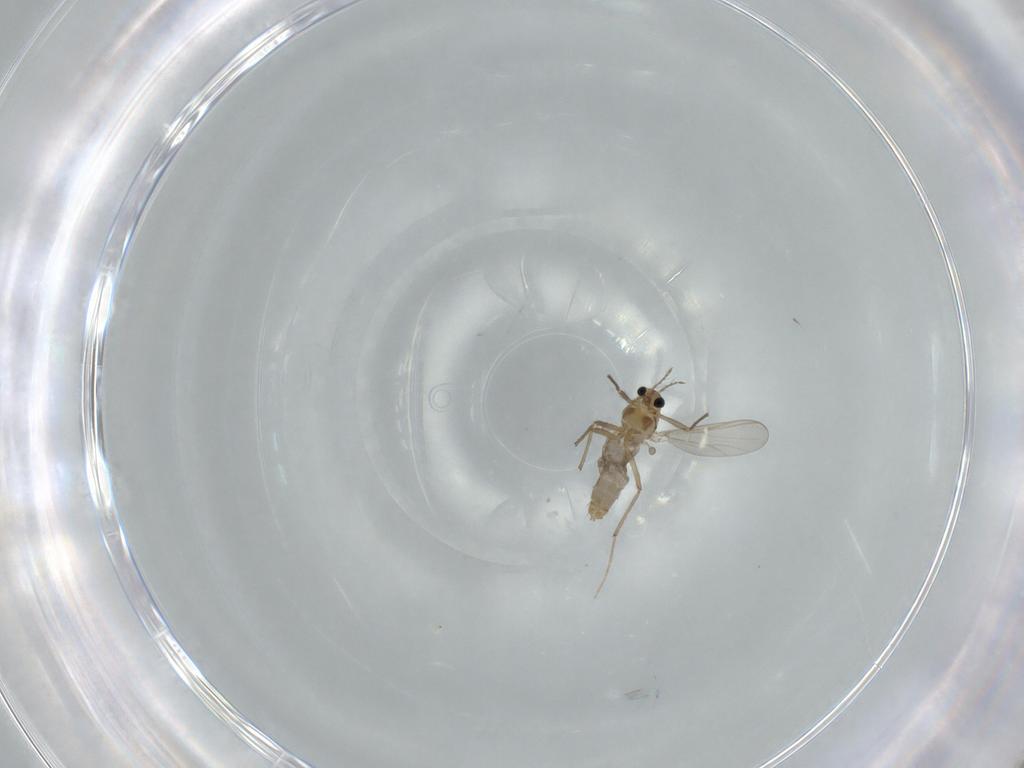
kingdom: Animalia
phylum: Arthropoda
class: Insecta
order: Diptera
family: Chironomidae
